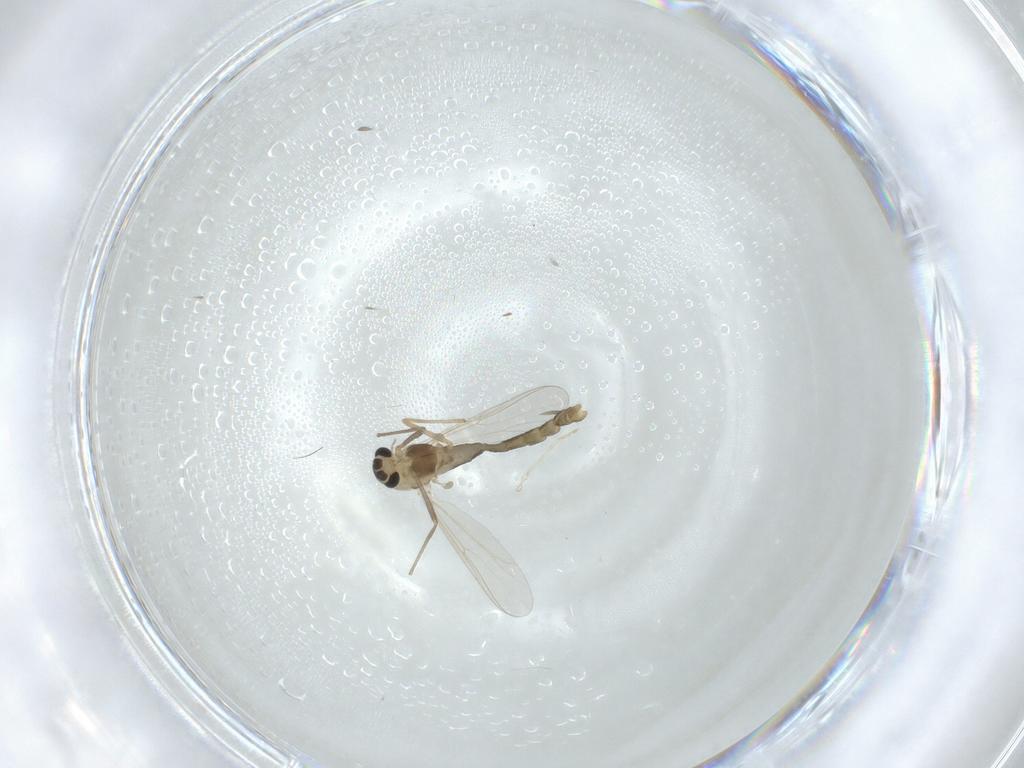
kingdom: Animalia
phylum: Arthropoda
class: Insecta
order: Diptera
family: Chironomidae
